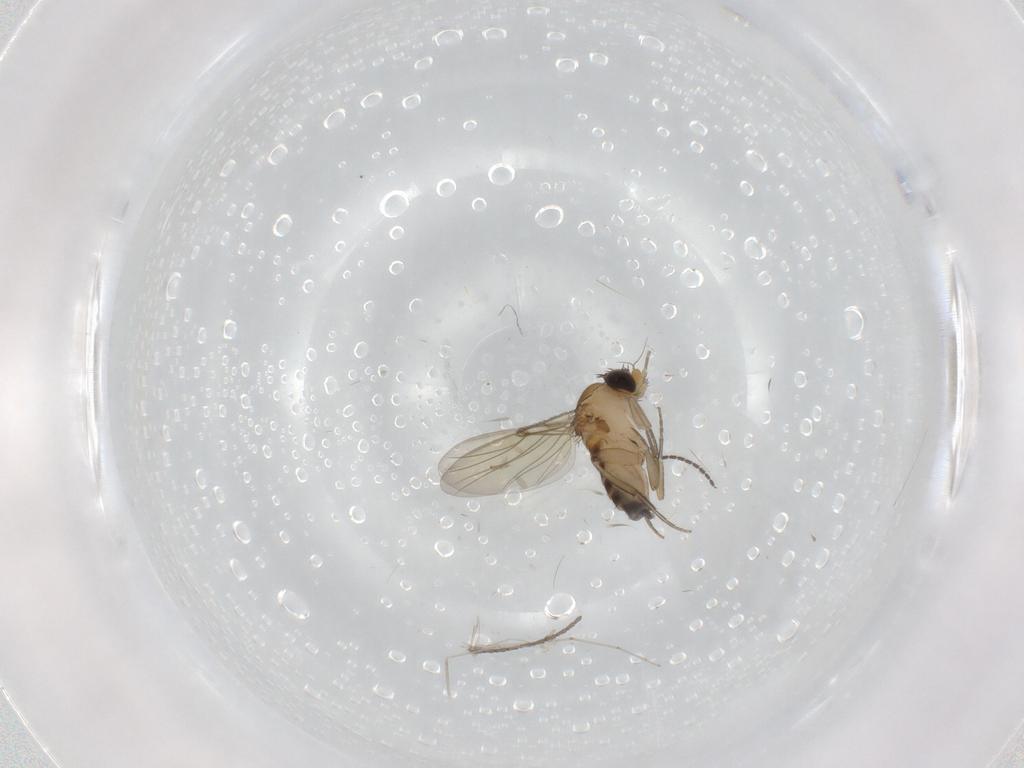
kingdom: Animalia
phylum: Arthropoda
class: Insecta
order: Diptera
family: Cecidomyiidae
